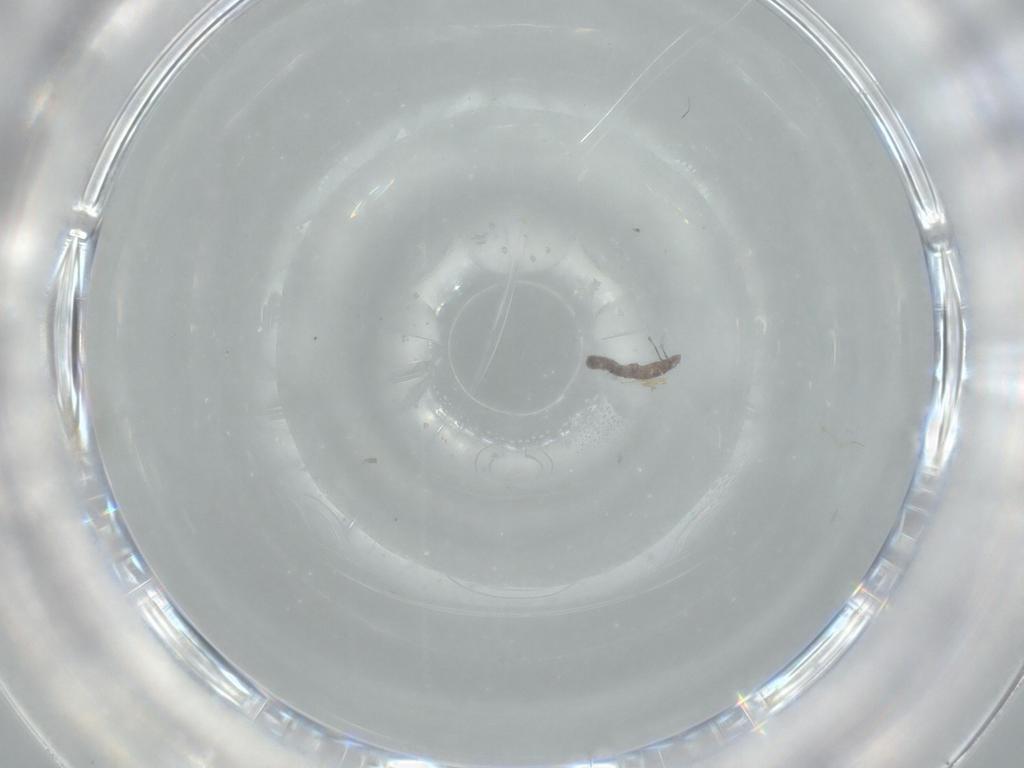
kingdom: Animalia
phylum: Arthropoda
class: Insecta
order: Diptera
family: Cecidomyiidae
